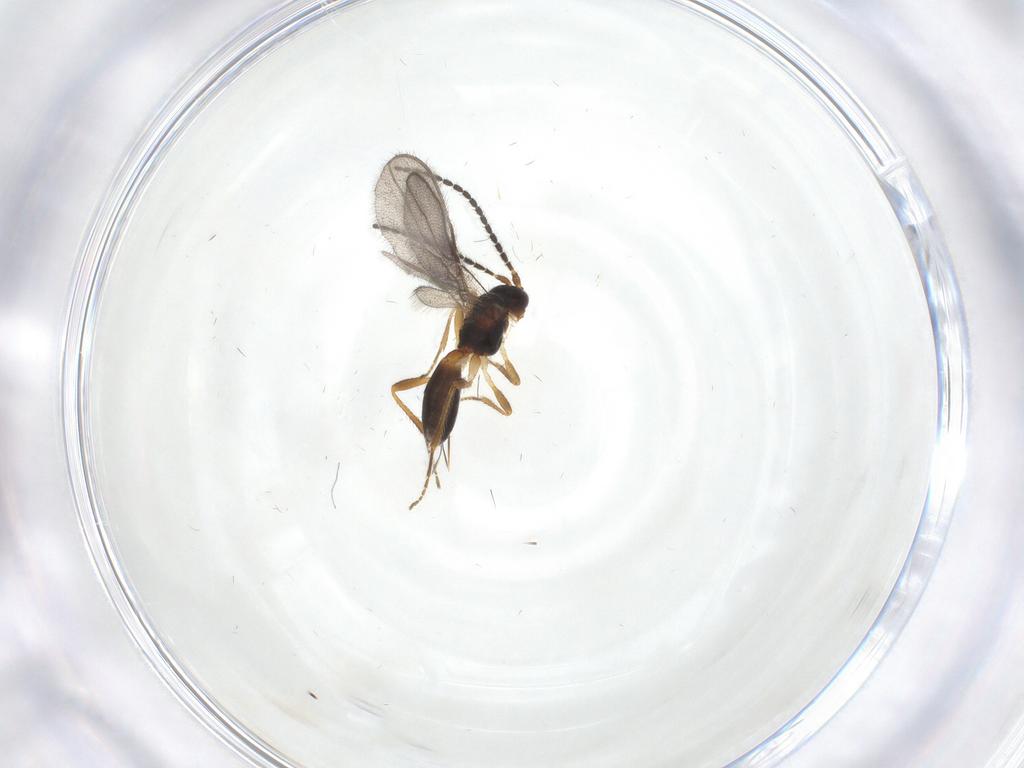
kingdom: Animalia
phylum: Arthropoda
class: Insecta
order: Hymenoptera
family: Braconidae
